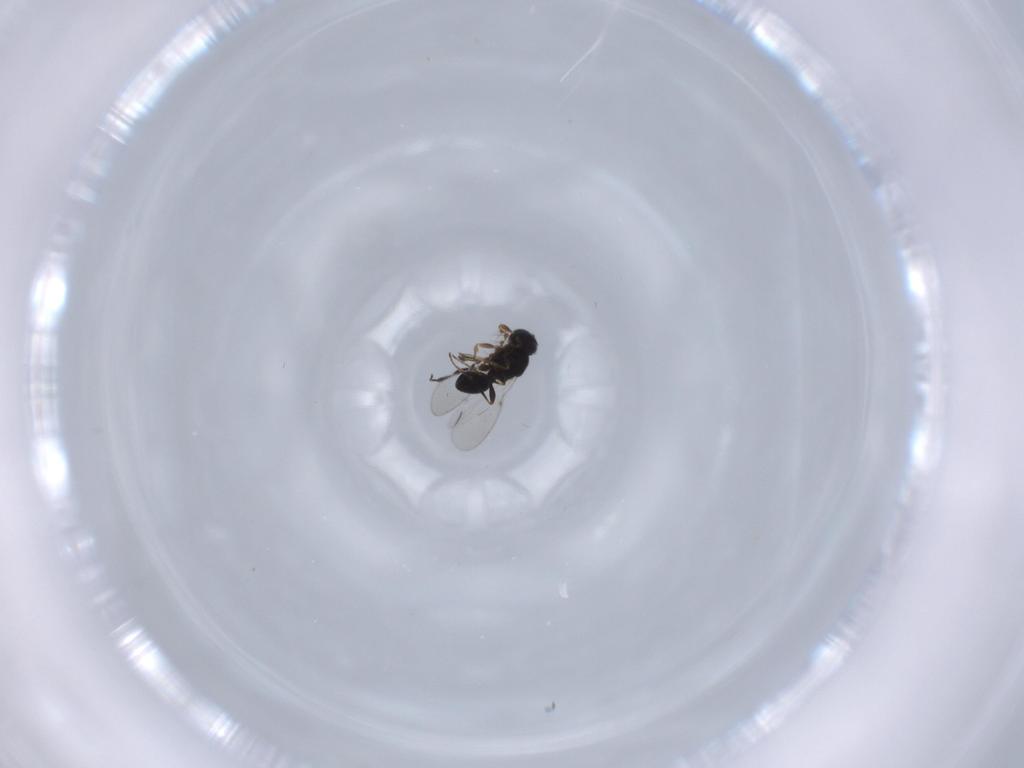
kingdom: Animalia
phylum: Arthropoda
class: Insecta
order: Hymenoptera
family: Platygastridae
